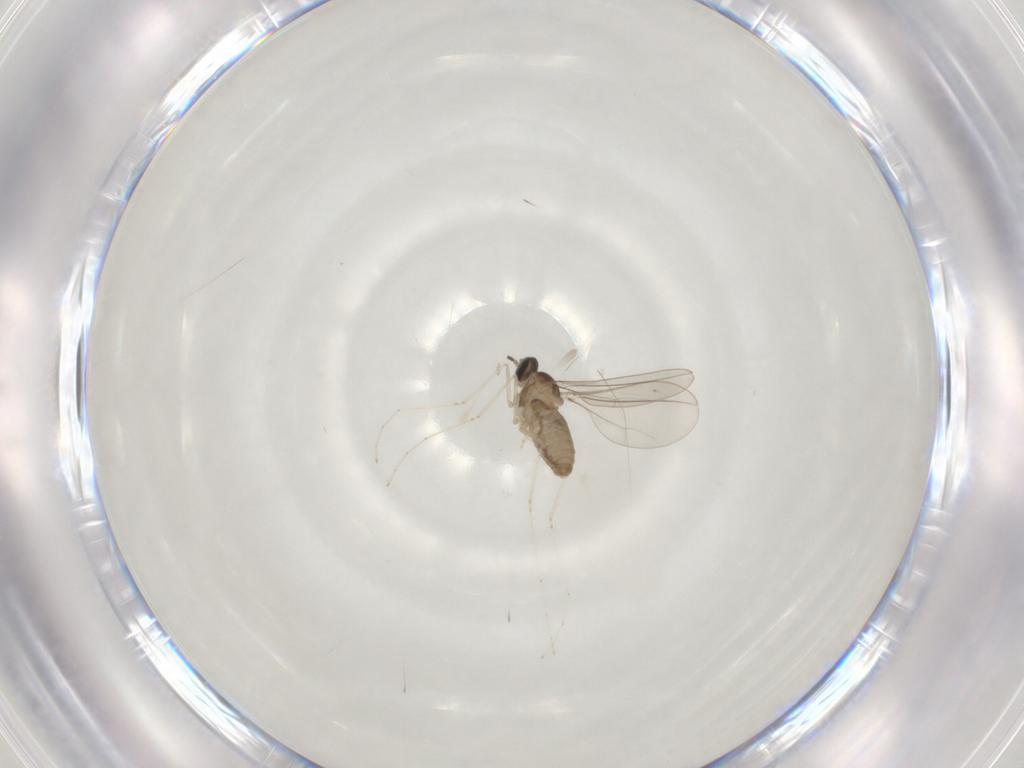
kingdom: Animalia
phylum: Arthropoda
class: Insecta
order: Diptera
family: Cecidomyiidae
